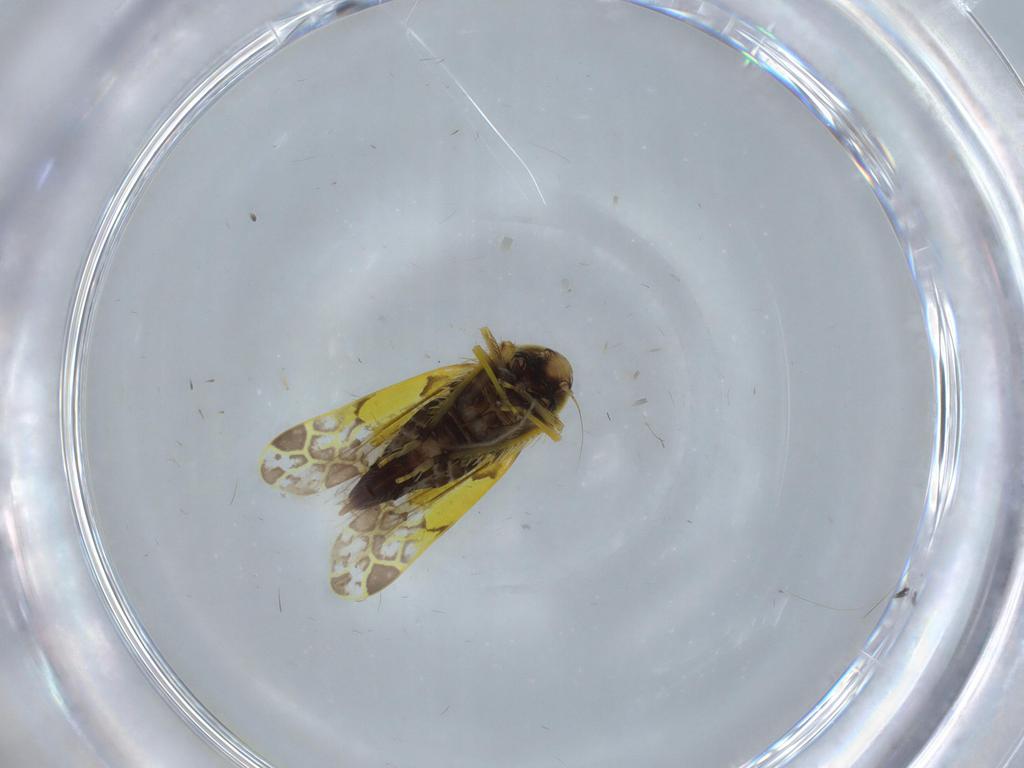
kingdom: Animalia
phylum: Arthropoda
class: Insecta
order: Hemiptera
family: Cicadellidae
